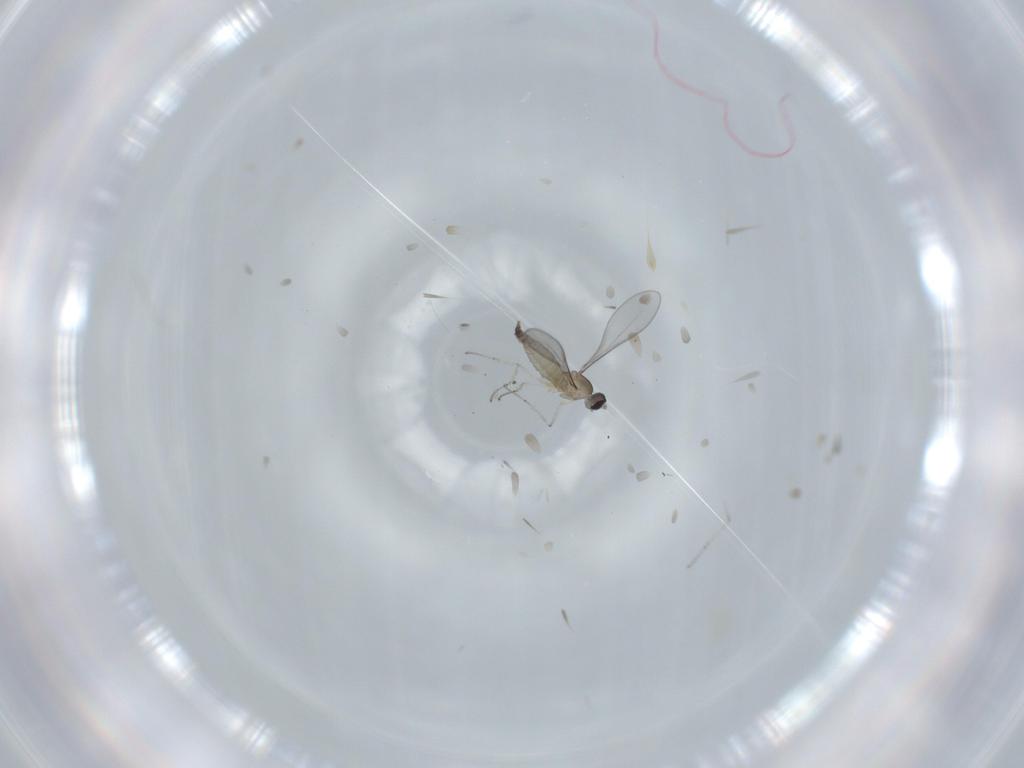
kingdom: Animalia
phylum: Arthropoda
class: Insecta
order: Diptera
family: Cecidomyiidae
